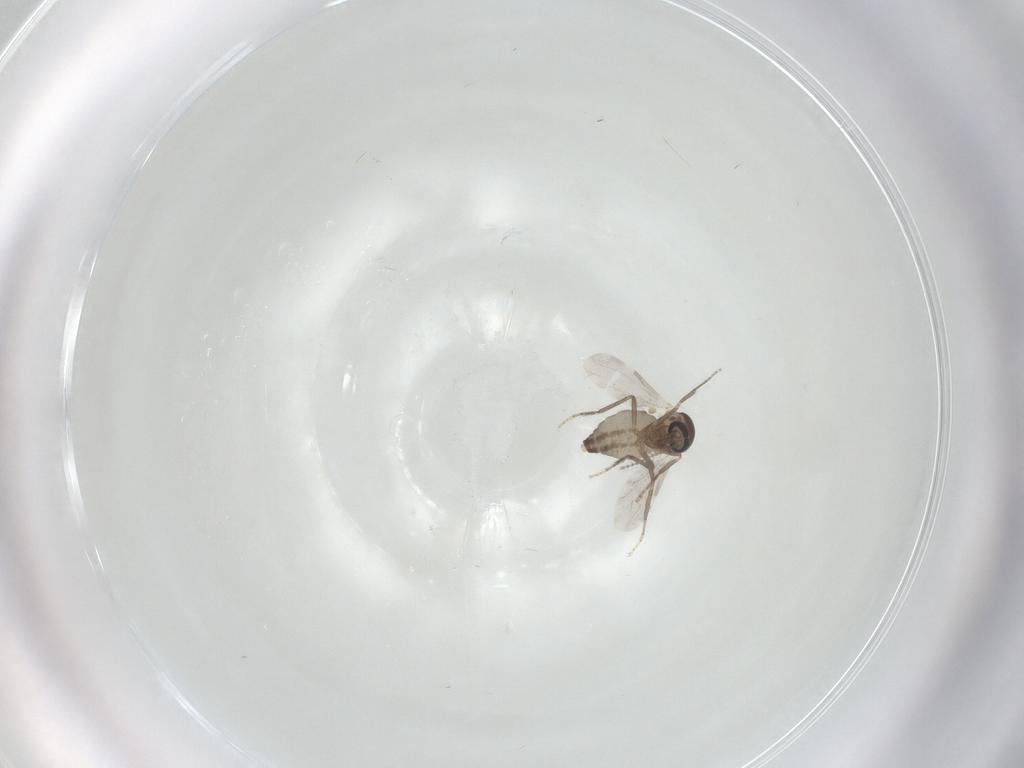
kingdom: Animalia
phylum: Arthropoda
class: Insecta
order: Diptera
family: Ceratopogonidae
